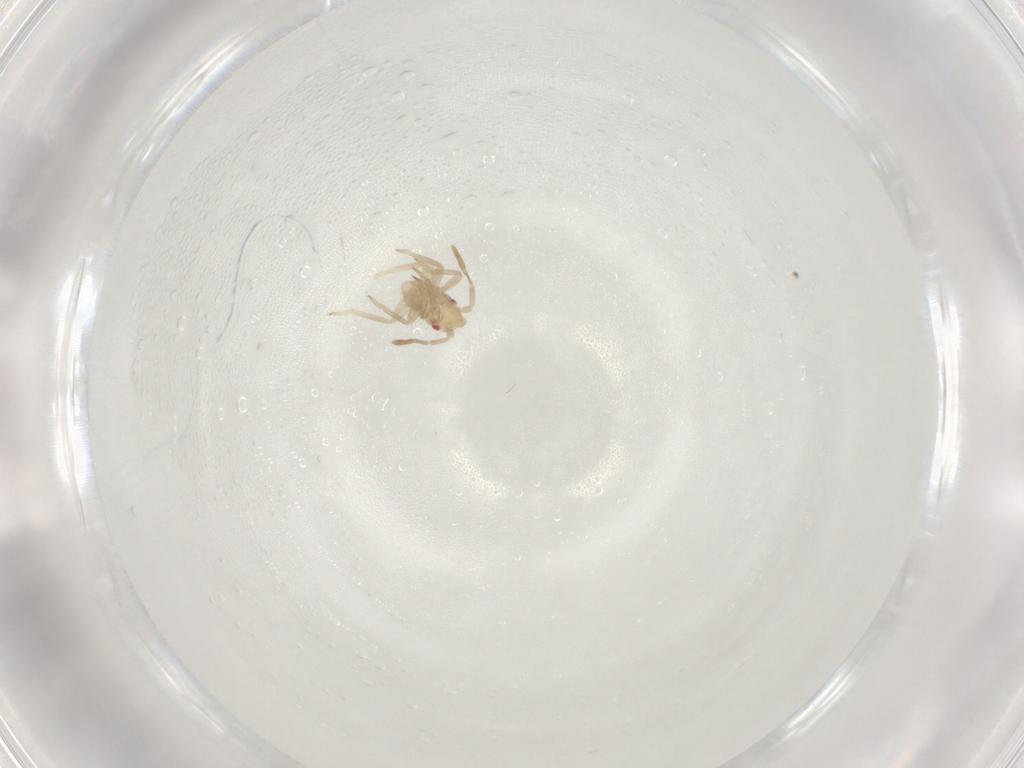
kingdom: Animalia
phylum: Arthropoda
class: Insecta
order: Hemiptera
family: Miridae
